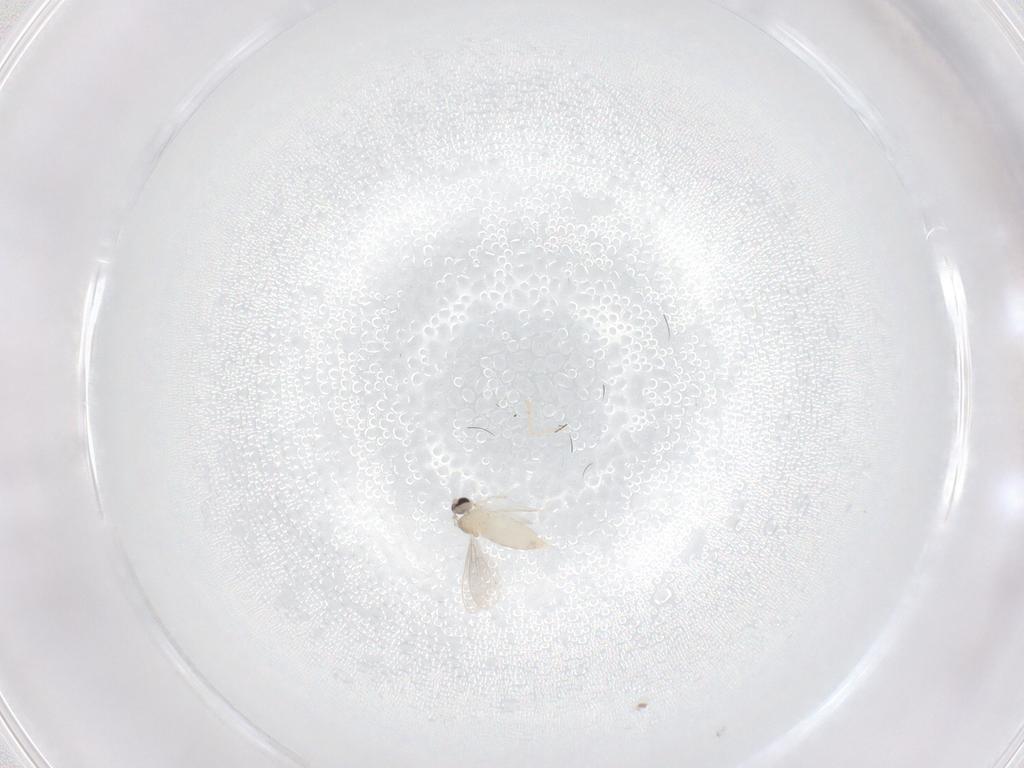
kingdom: Animalia
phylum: Arthropoda
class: Insecta
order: Diptera
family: Cecidomyiidae
